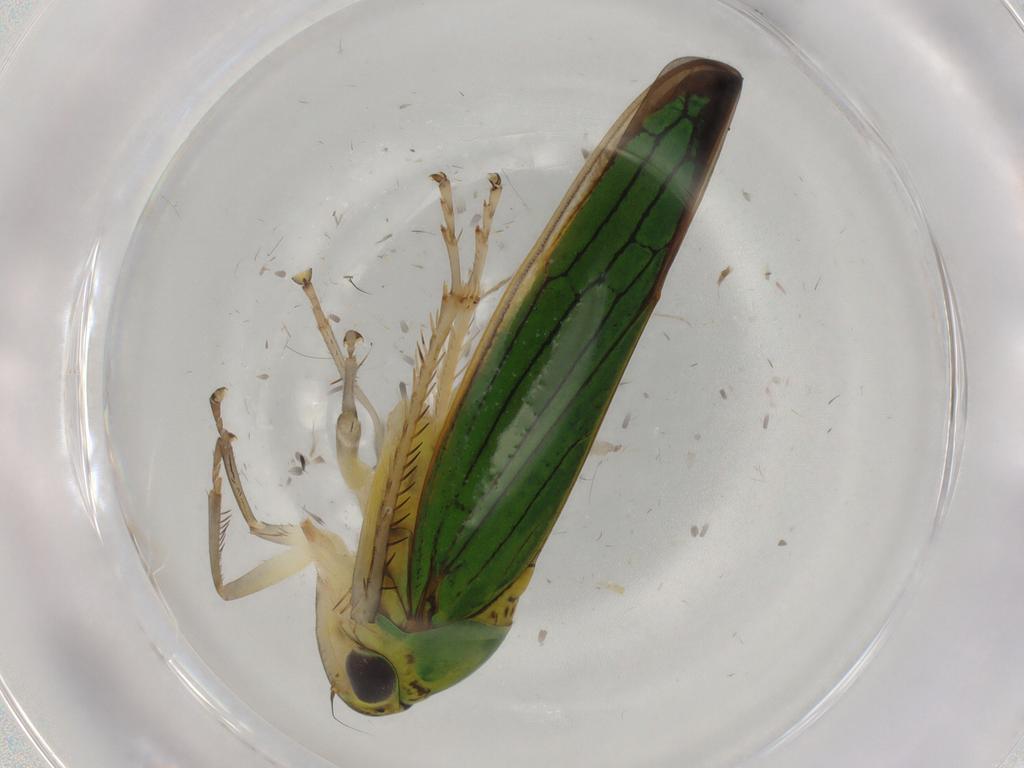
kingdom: Animalia
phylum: Arthropoda
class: Insecta
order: Hemiptera
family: Cicadellidae
